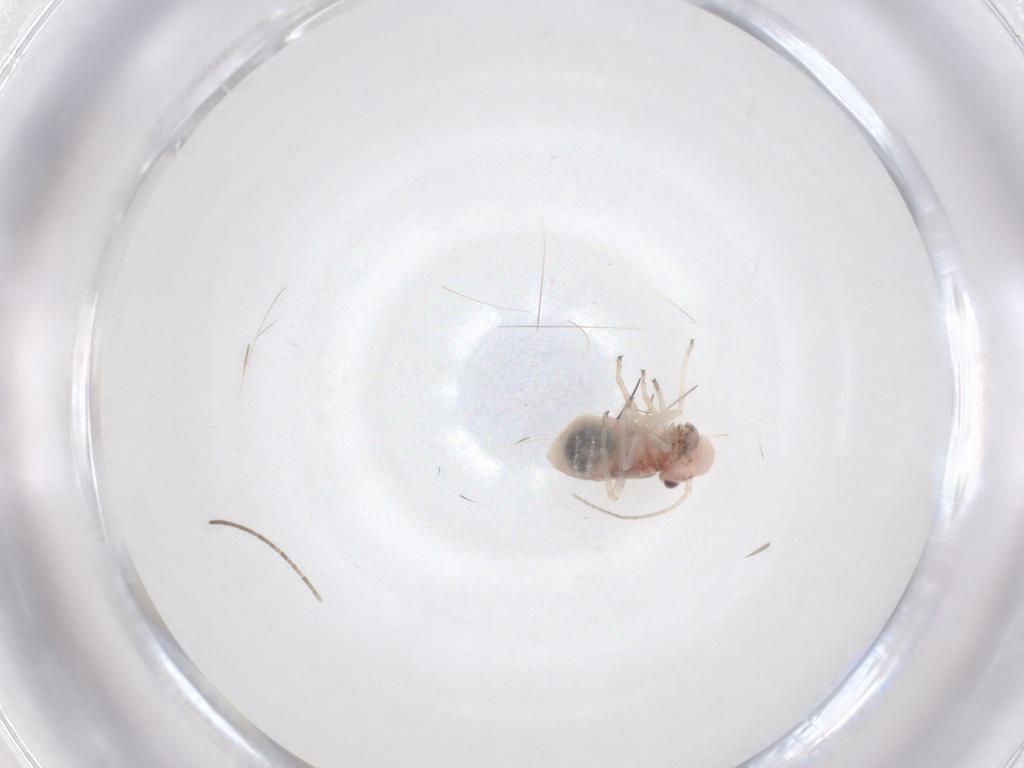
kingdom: Animalia
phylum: Arthropoda
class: Insecta
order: Psocodea
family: Caeciliusidae
